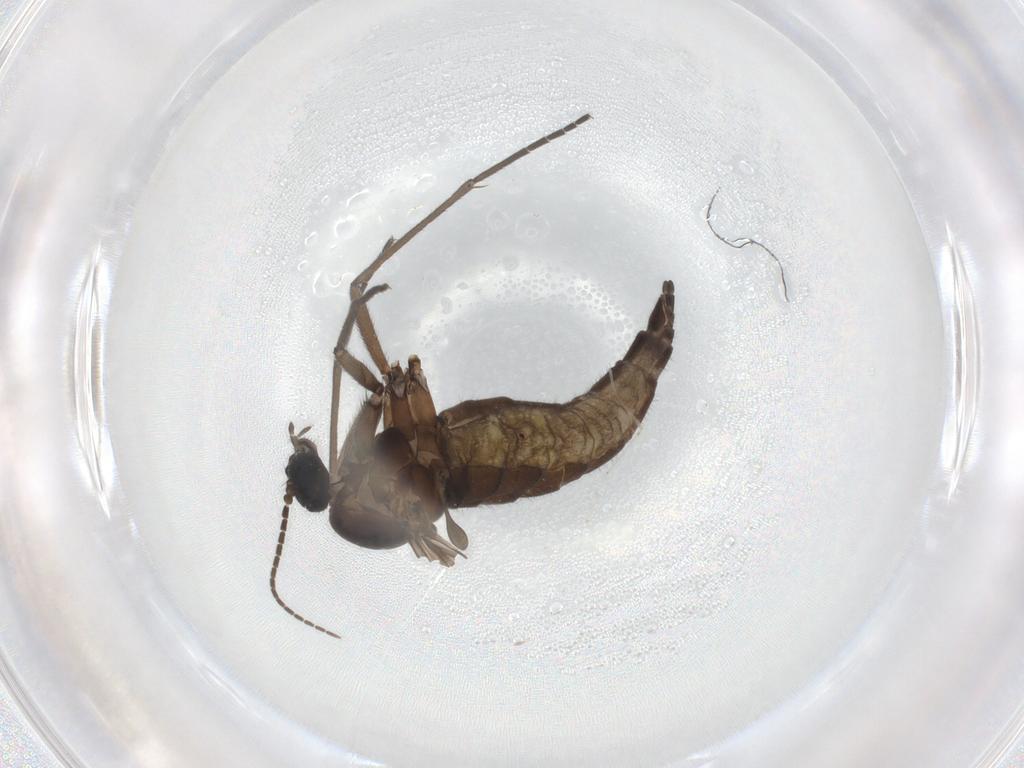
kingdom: Animalia
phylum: Arthropoda
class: Insecta
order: Diptera
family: Sciaridae
